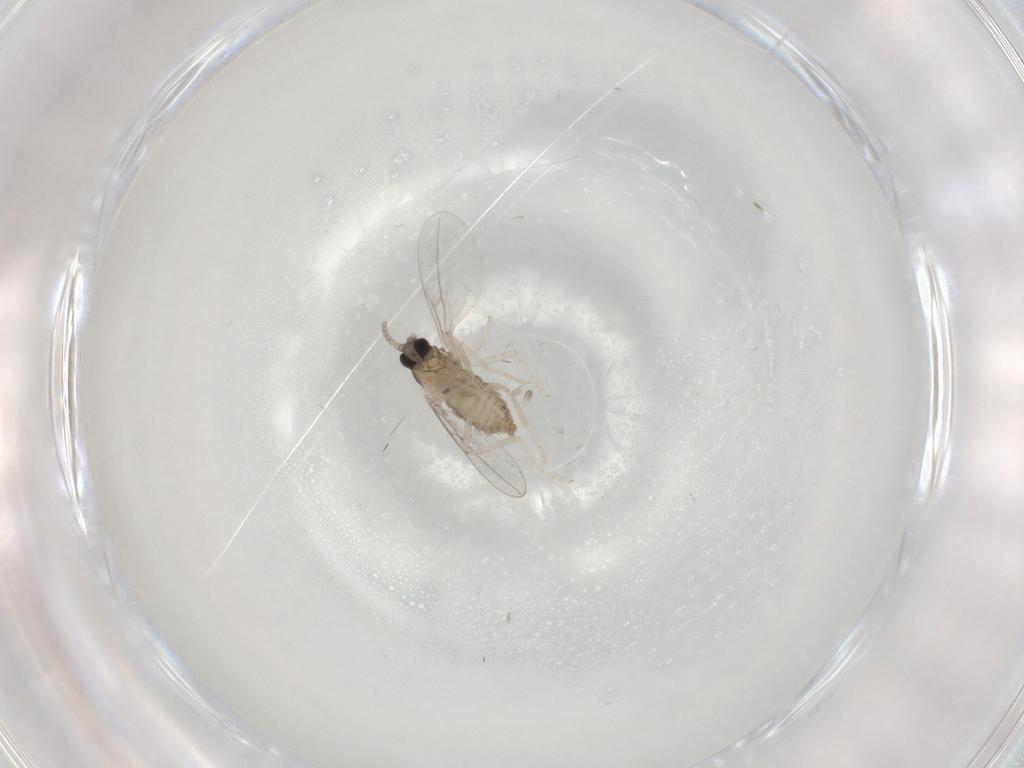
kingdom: Animalia
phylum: Arthropoda
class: Insecta
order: Diptera
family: Cecidomyiidae
